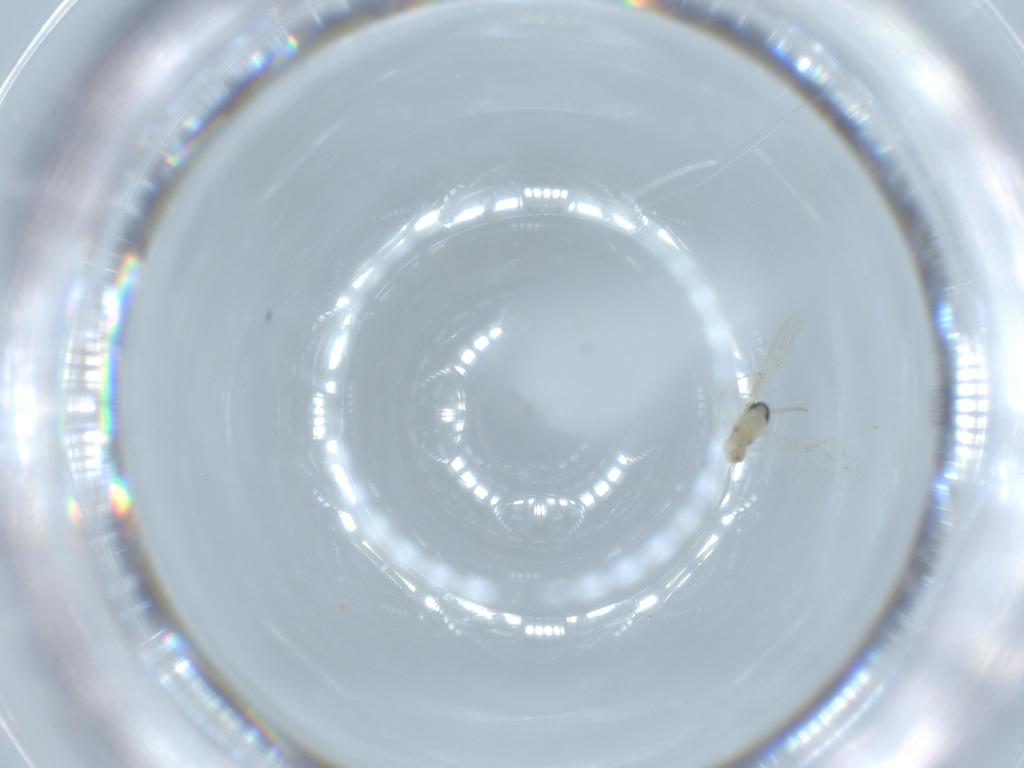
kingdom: Animalia
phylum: Arthropoda
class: Insecta
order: Diptera
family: Cecidomyiidae
